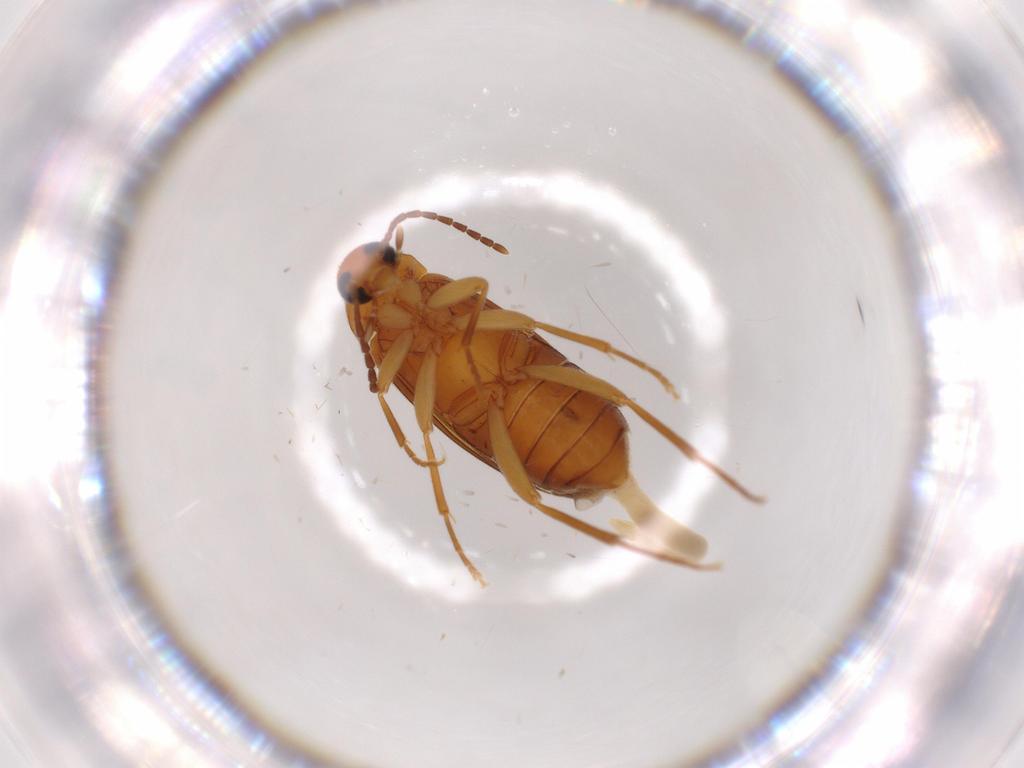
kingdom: Animalia
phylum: Arthropoda
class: Insecta
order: Coleoptera
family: Scraptiidae
